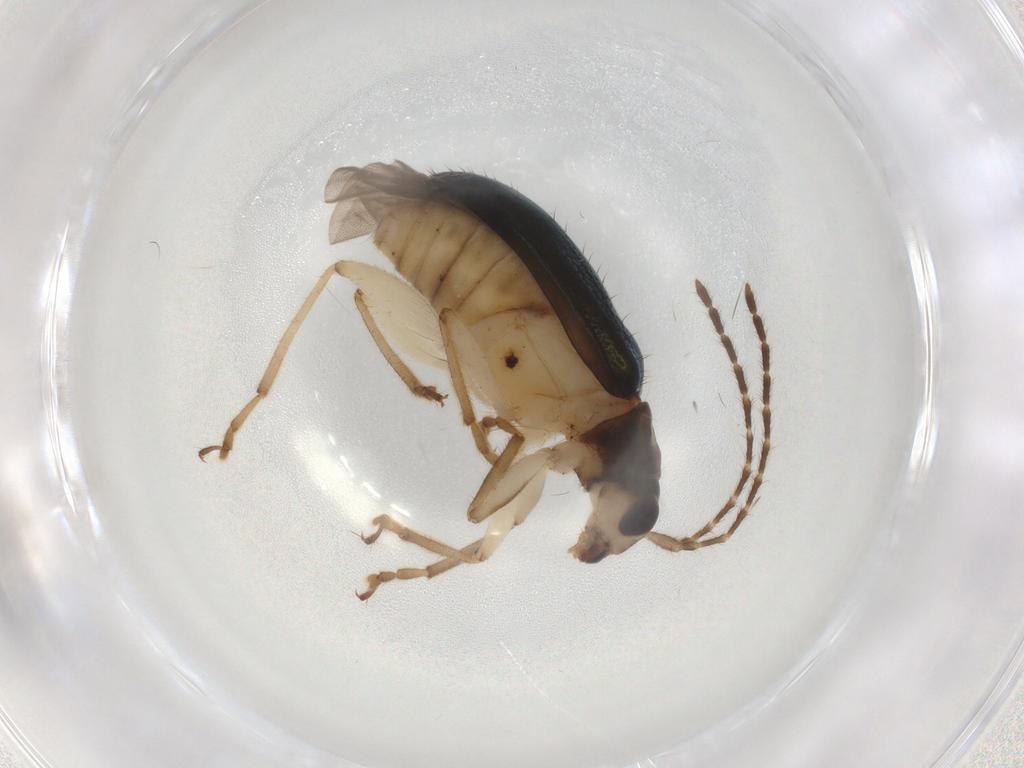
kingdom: Animalia
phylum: Arthropoda
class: Insecta
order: Coleoptera
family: Chrysomelidae
